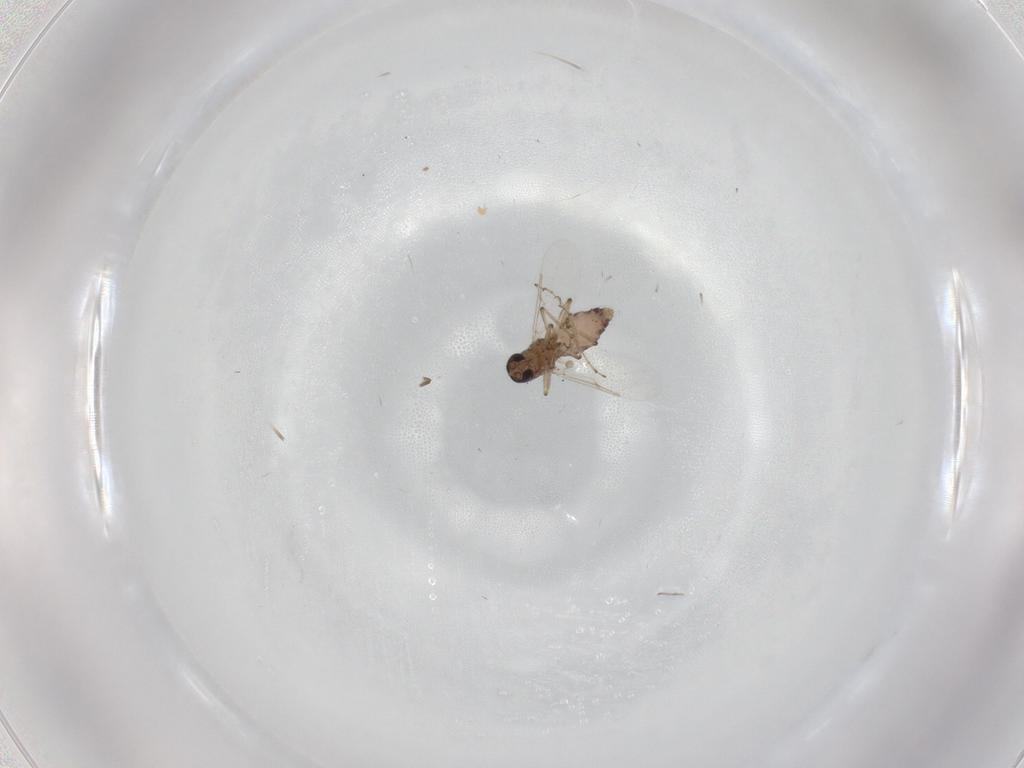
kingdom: Animalia
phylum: Arthropoda
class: Insecta
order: Diptera
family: Ceratopogonidae
